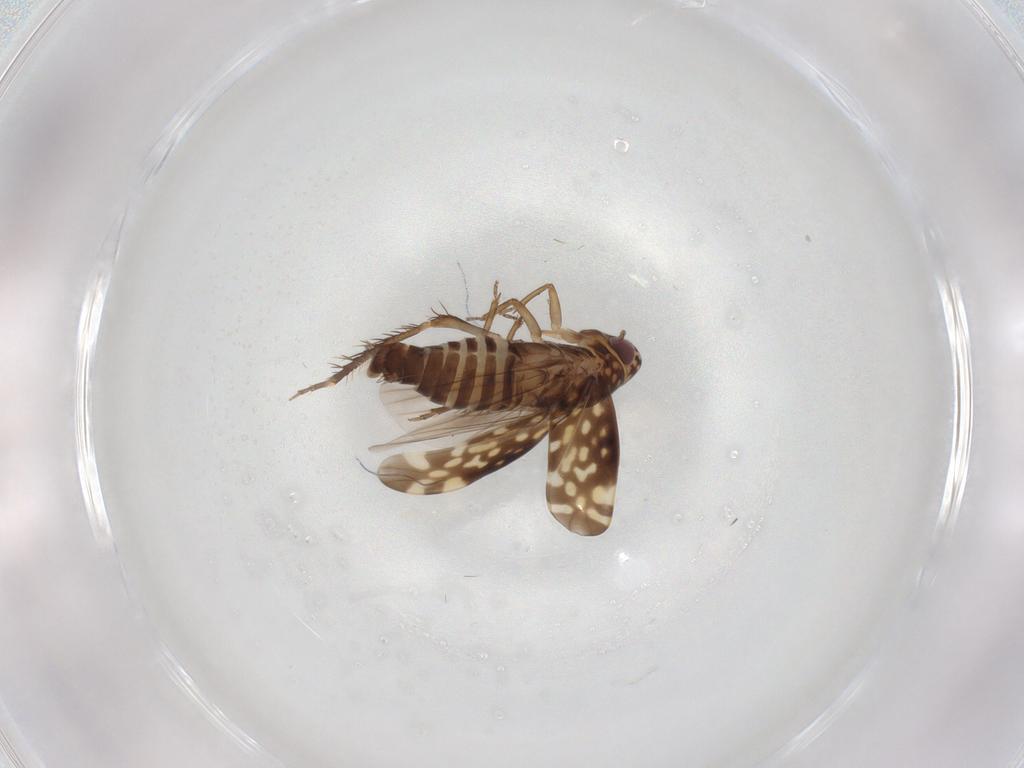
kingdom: Animalia
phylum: Arthropoda
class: Insecta
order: Hemiptera
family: Cicadellidae
